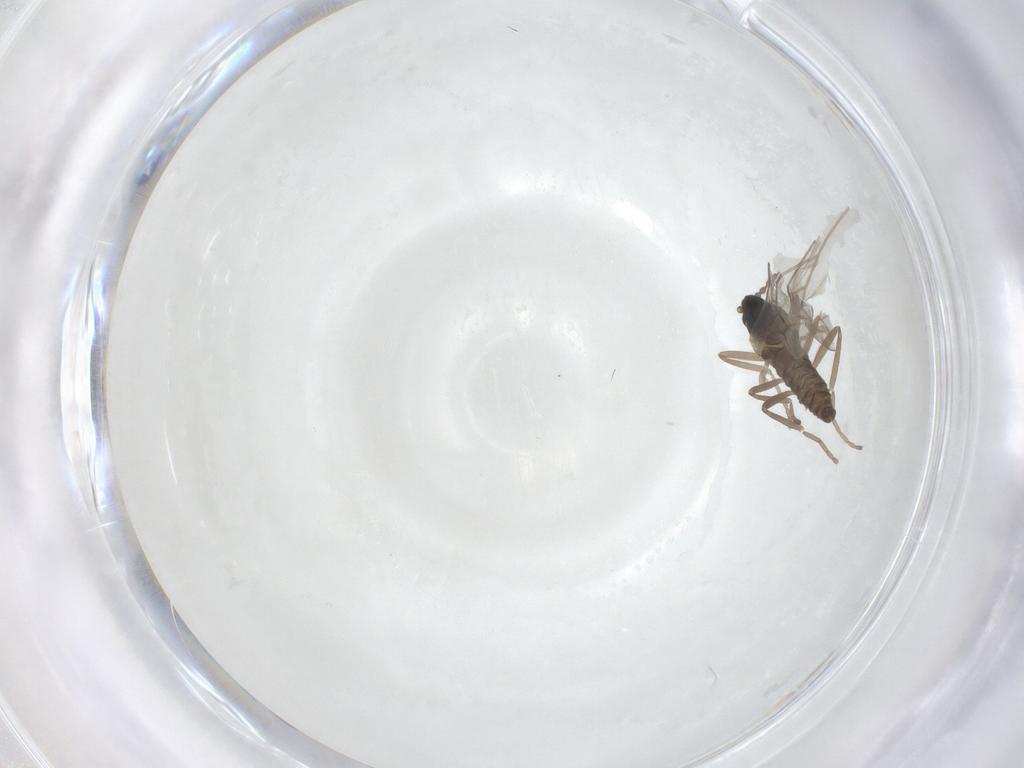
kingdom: Animalia
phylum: Arthropoda
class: Insecta
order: Diptera
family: Cecidomyiidae
